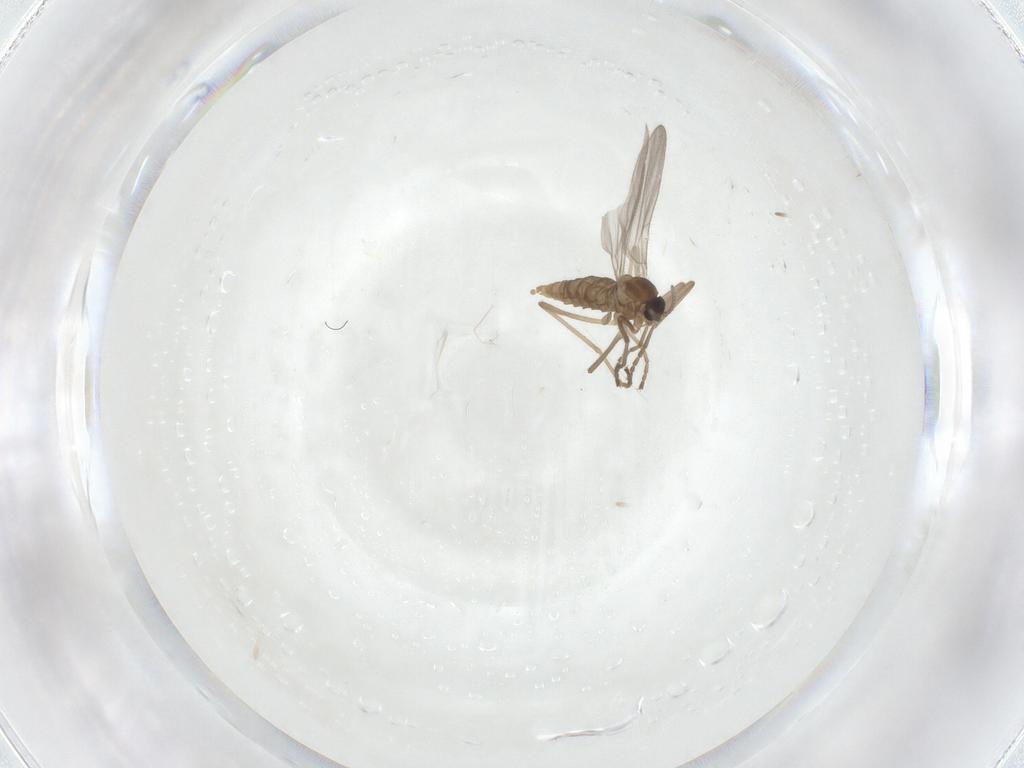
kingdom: Animalia
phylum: Arthropoda
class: Insecta
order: Diptera
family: Cecidomyiidae
